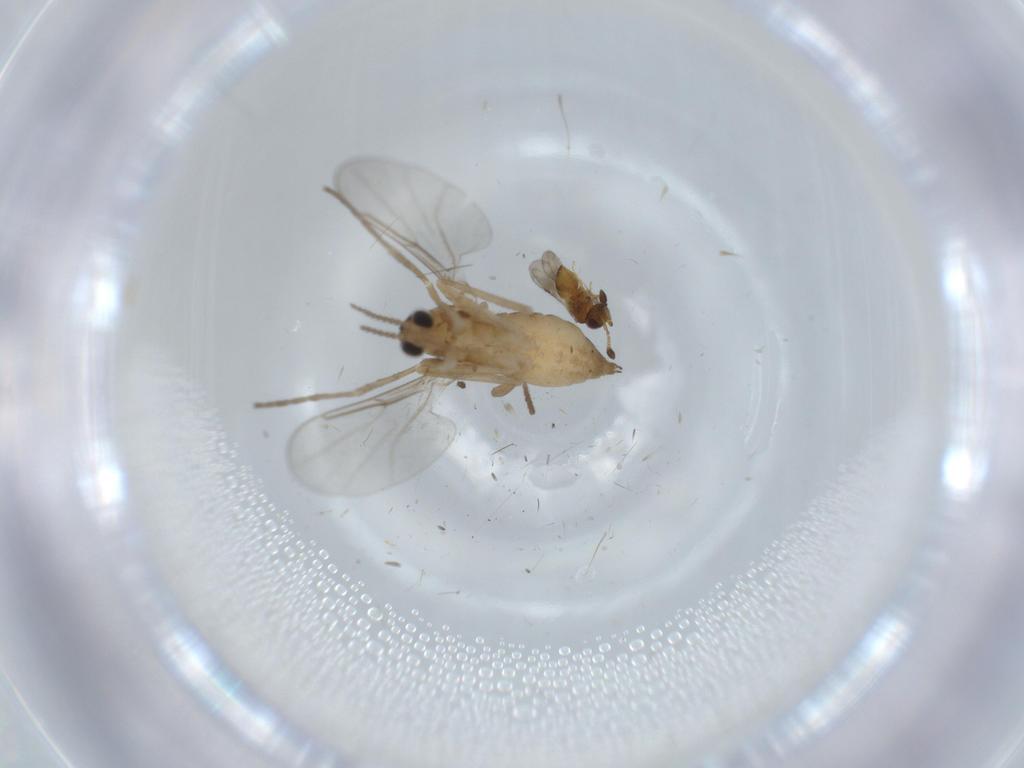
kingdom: Animalia
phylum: Arthropoda
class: Insecta
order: Diptera
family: Cecidomyiidae
